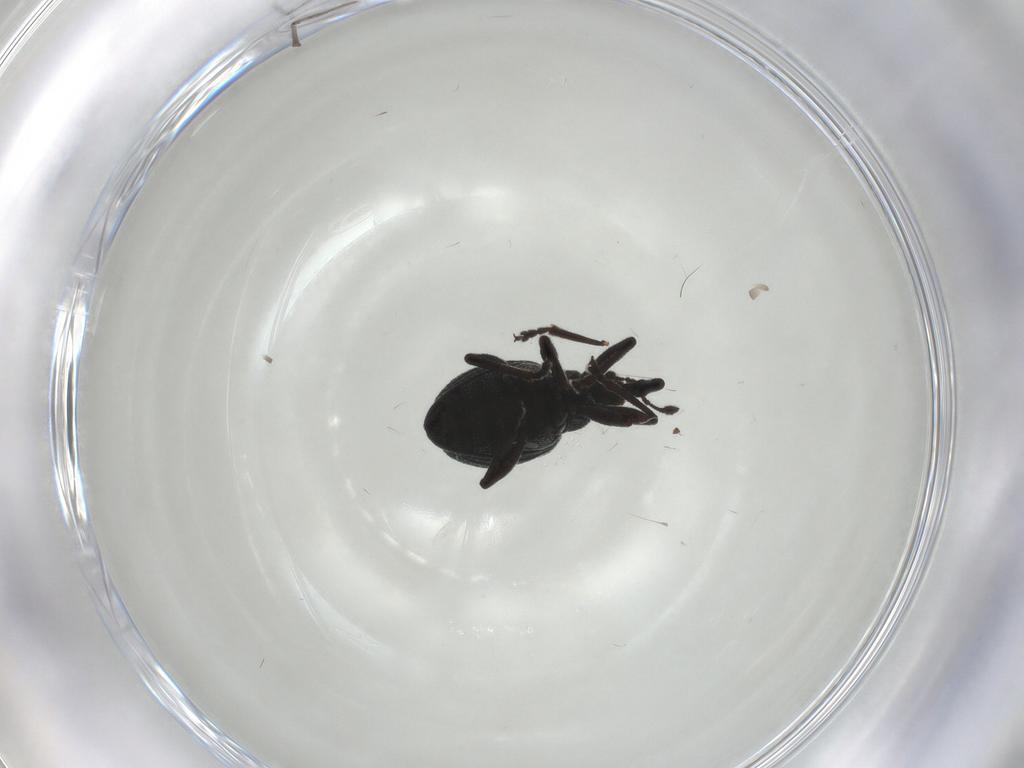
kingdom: Animalia
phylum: Arthropoda
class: Insecta
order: Coleoptera
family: Brentidae
